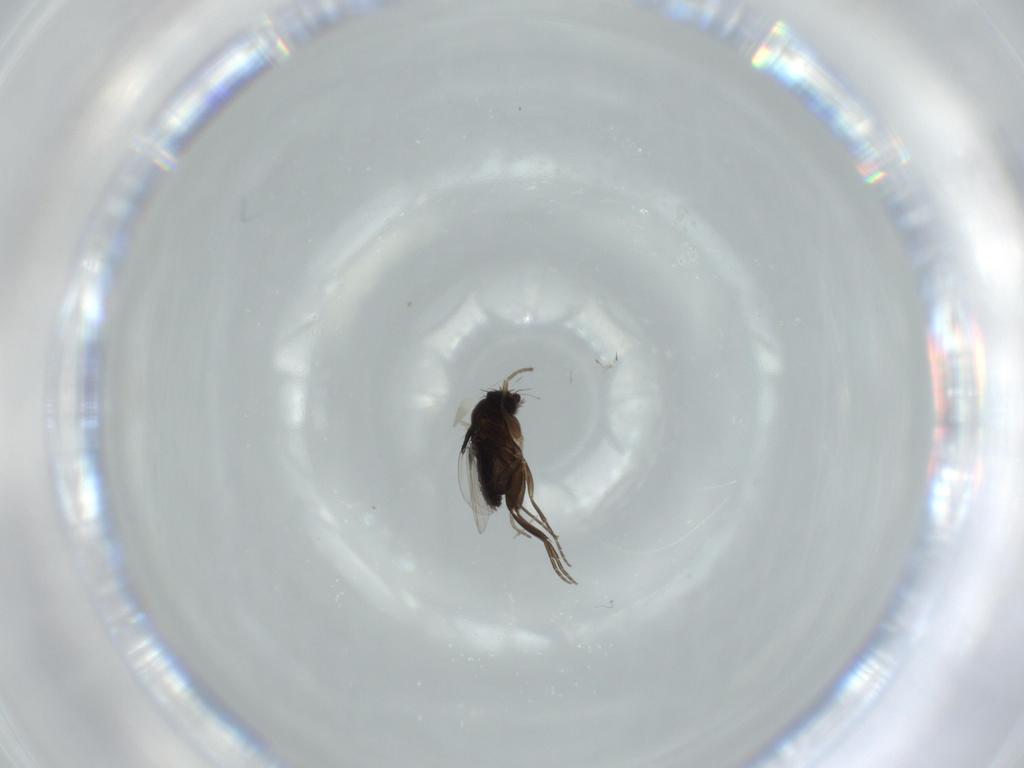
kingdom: Animalia
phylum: Arthropoda
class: Insecta
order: Diptera
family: Phoridae
